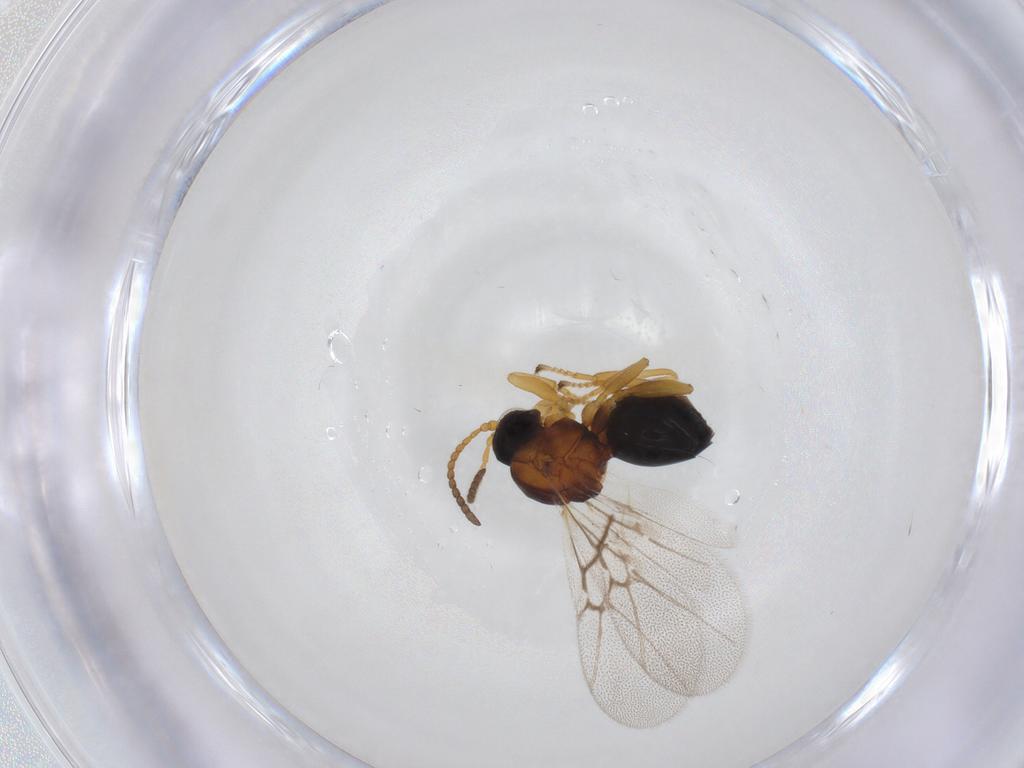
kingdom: Animalia
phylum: Arthropoda
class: Insecta
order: Hymenoptera
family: Cynipidae
